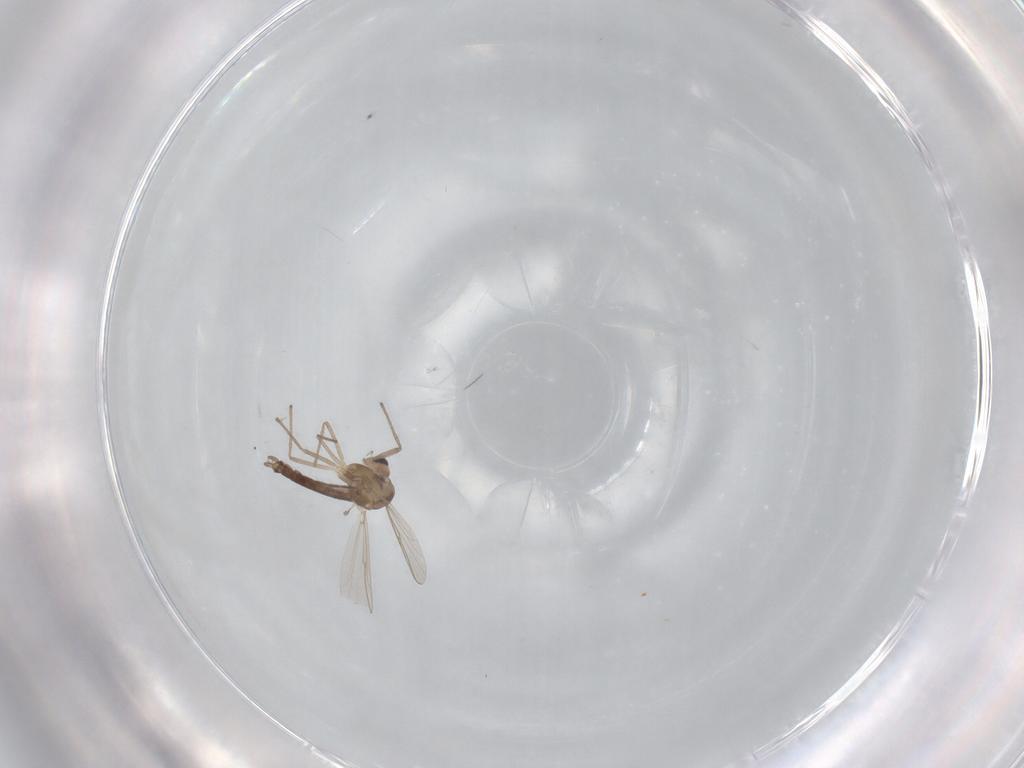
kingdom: Animalia
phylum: Arthropoda
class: Insecta
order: Diptera
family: Chironomidae
